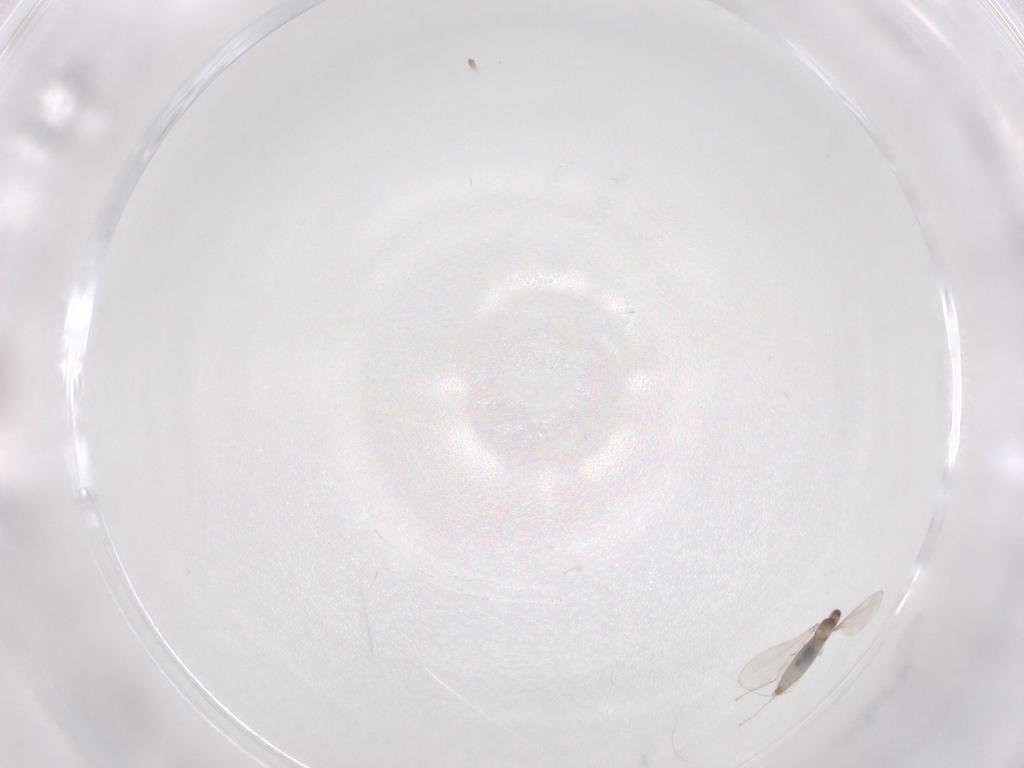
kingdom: Animalia
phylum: Arthropoda
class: Insecta
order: Diptera
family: Cecidomyiidae
